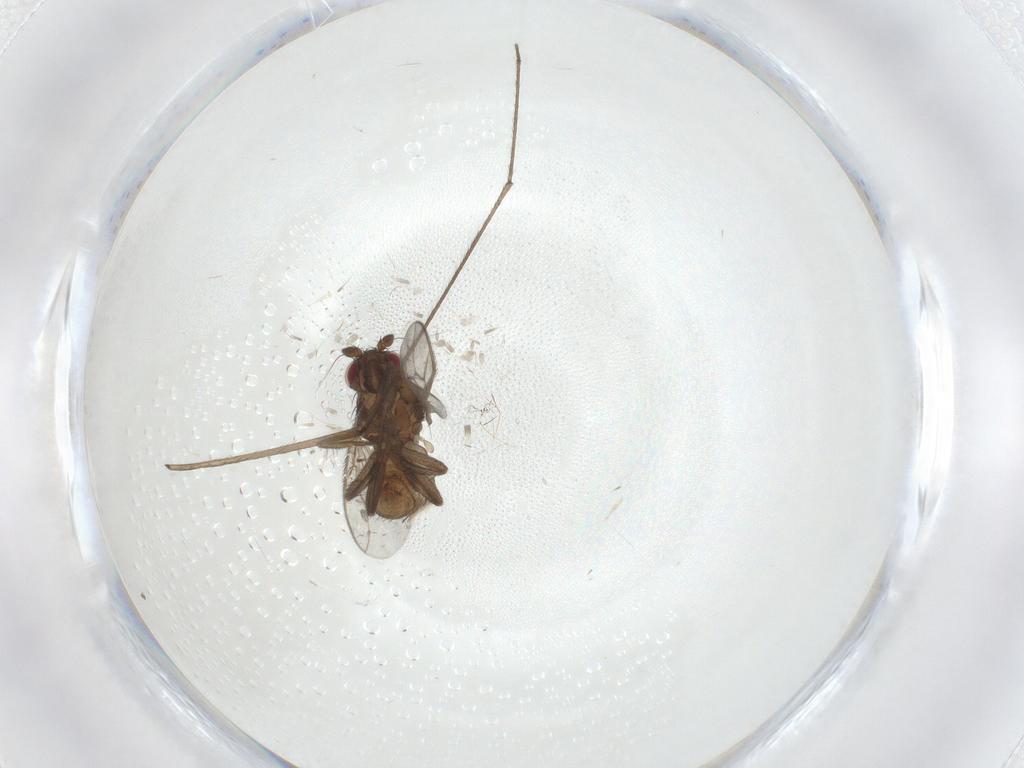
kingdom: Animalia
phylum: Arthropoda
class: Insecta
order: Diptera
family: Sphaeroceridae
